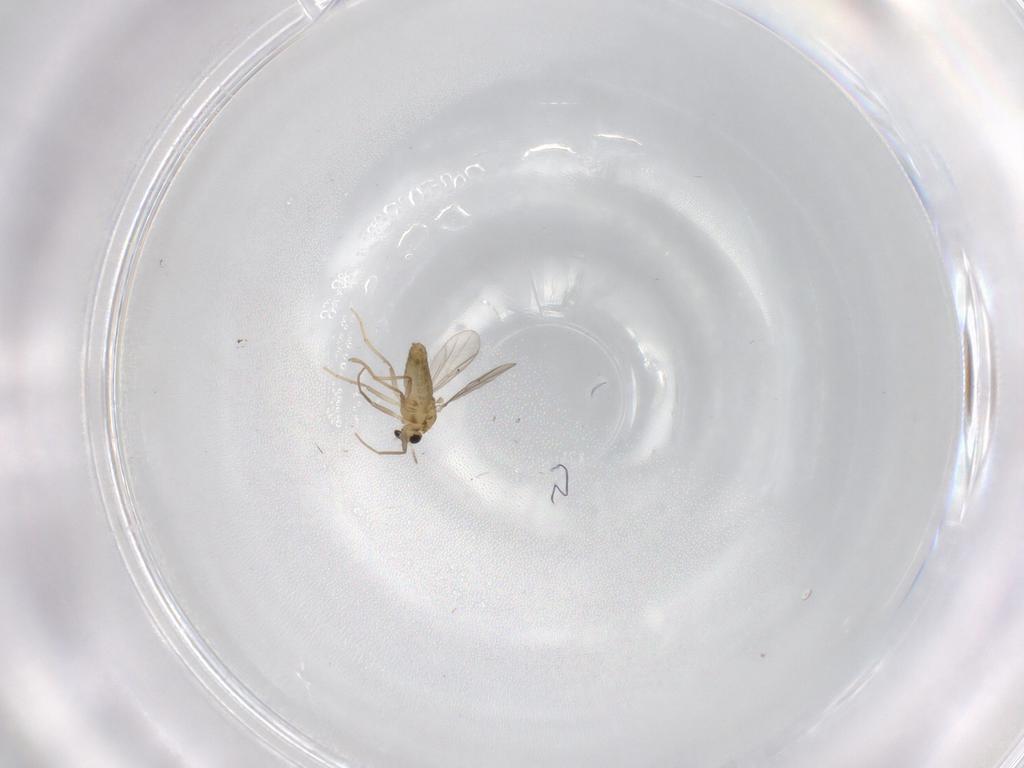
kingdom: Animalia
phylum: Arthropoda
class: Insecta
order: Diptera
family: Chironomidae
